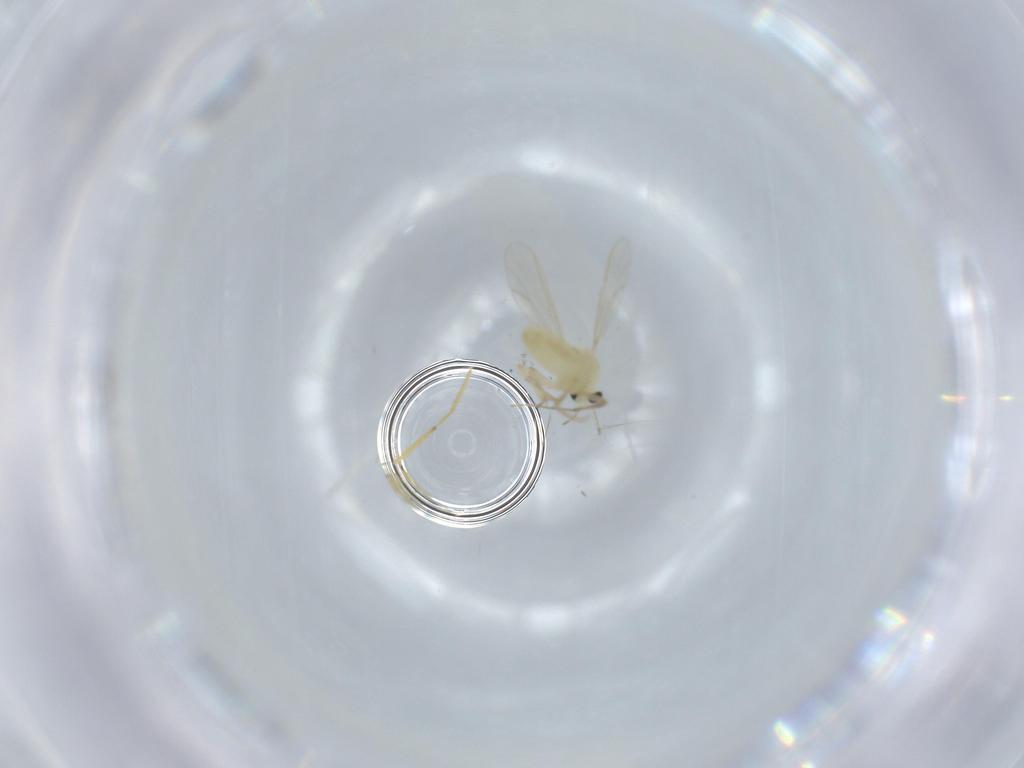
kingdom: Animalia
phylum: Arthropoda
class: Insecta
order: Diptera
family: Chironomidae
